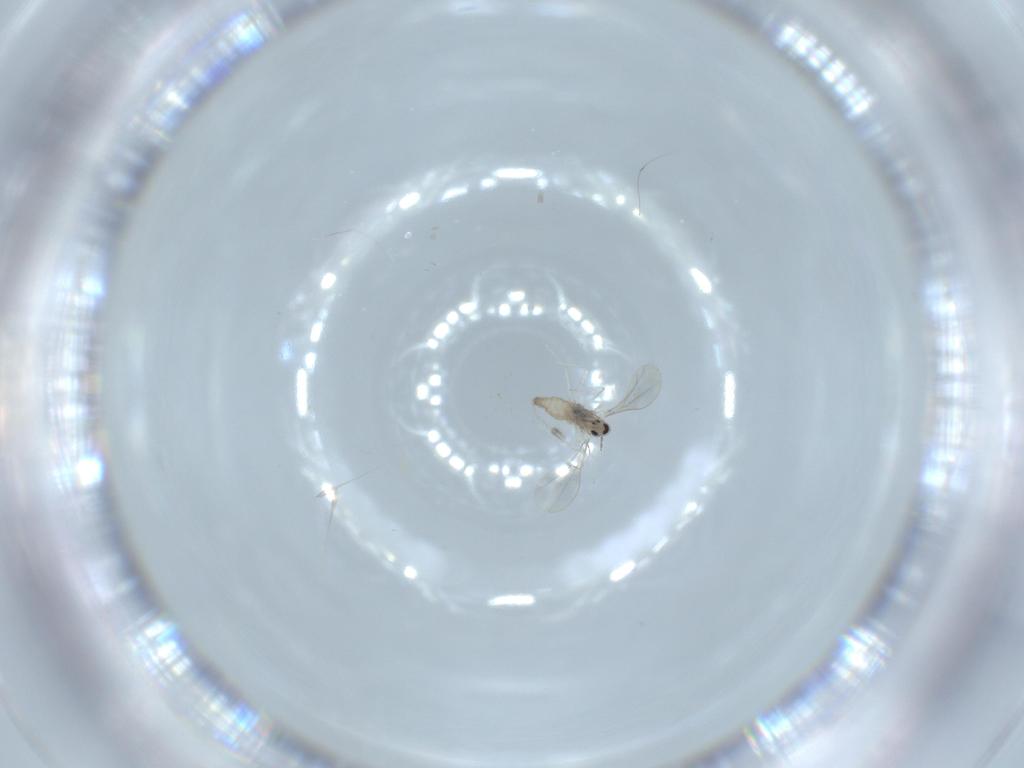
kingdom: Animalia
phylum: Arthropoda
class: Insecta
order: Diptera
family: Cecidomyiidae
